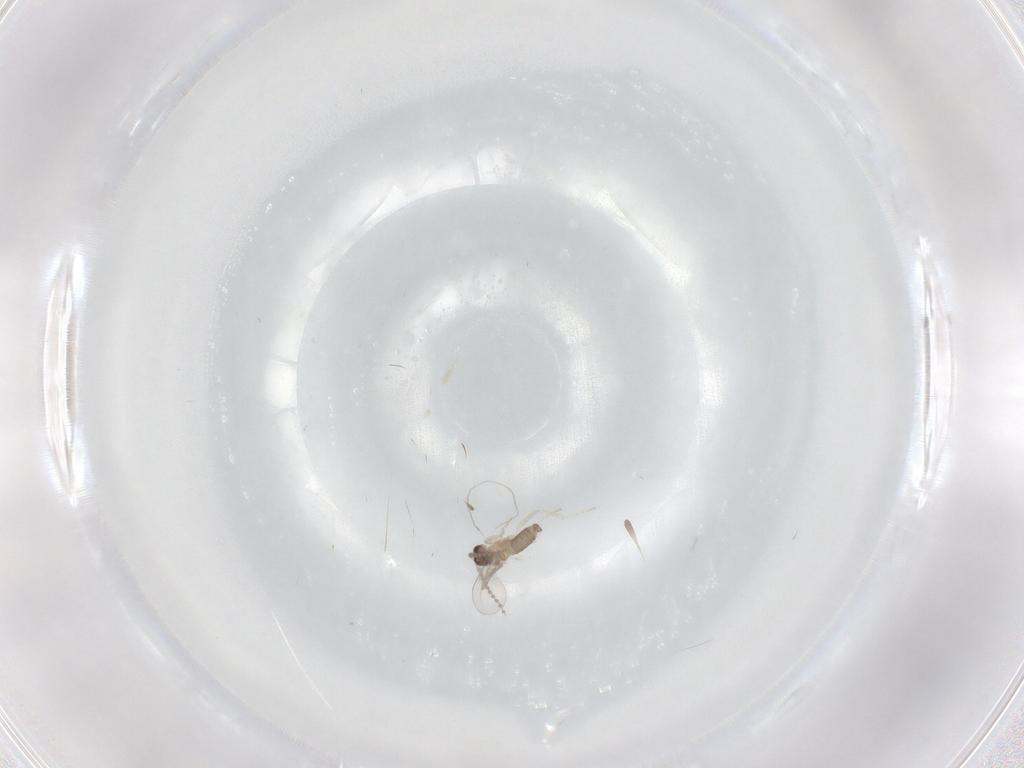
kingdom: Animalia
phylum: Arthropoda
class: Insecta
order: Diptera
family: Cecidomyiidae
